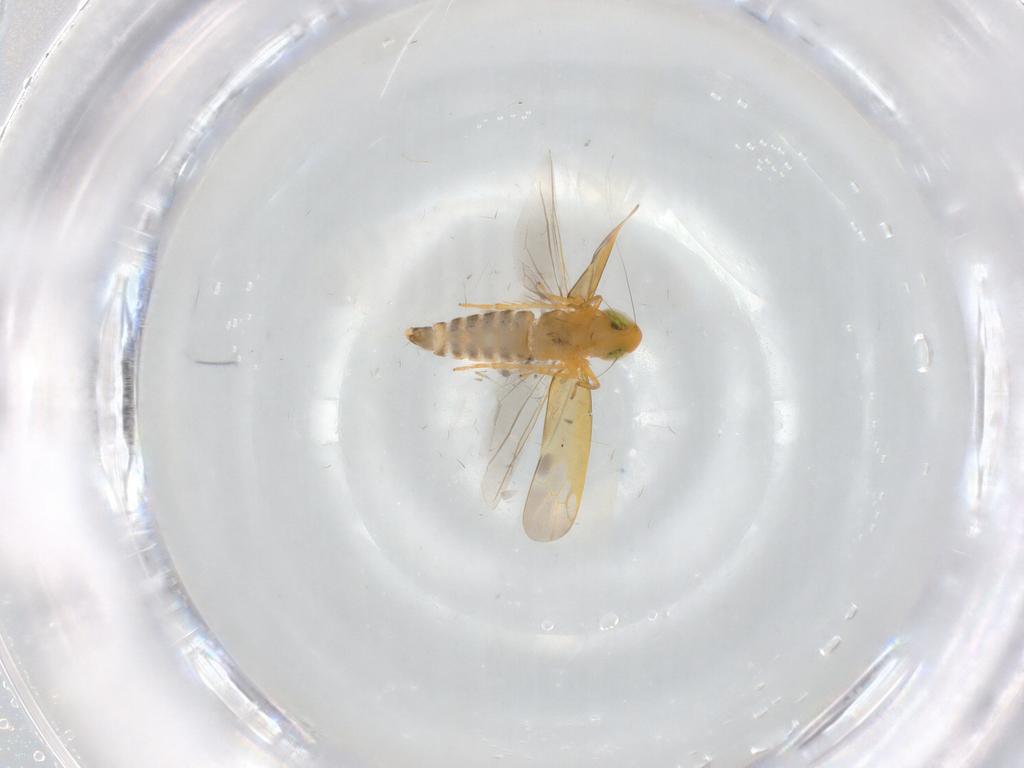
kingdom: Animalia
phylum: Arthropoda
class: Insecta
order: Hemiptera
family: Cicadellidae
